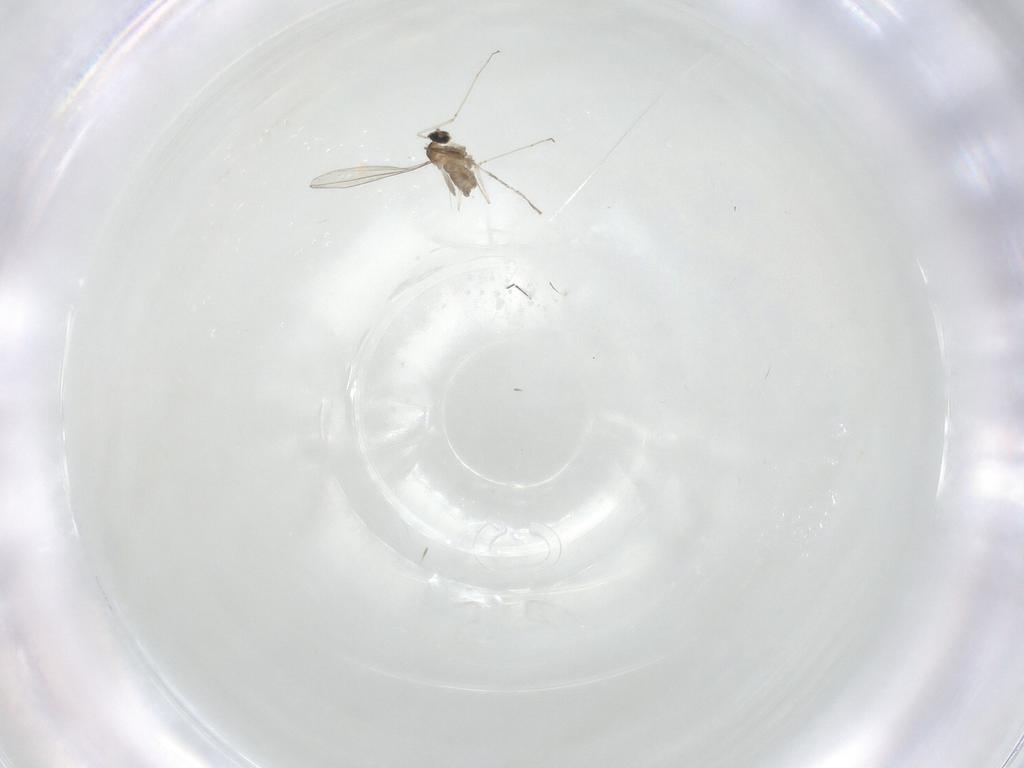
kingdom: Animalia
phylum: Arthropoda
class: Insecta
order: Diptera
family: Cecidomyiidae
